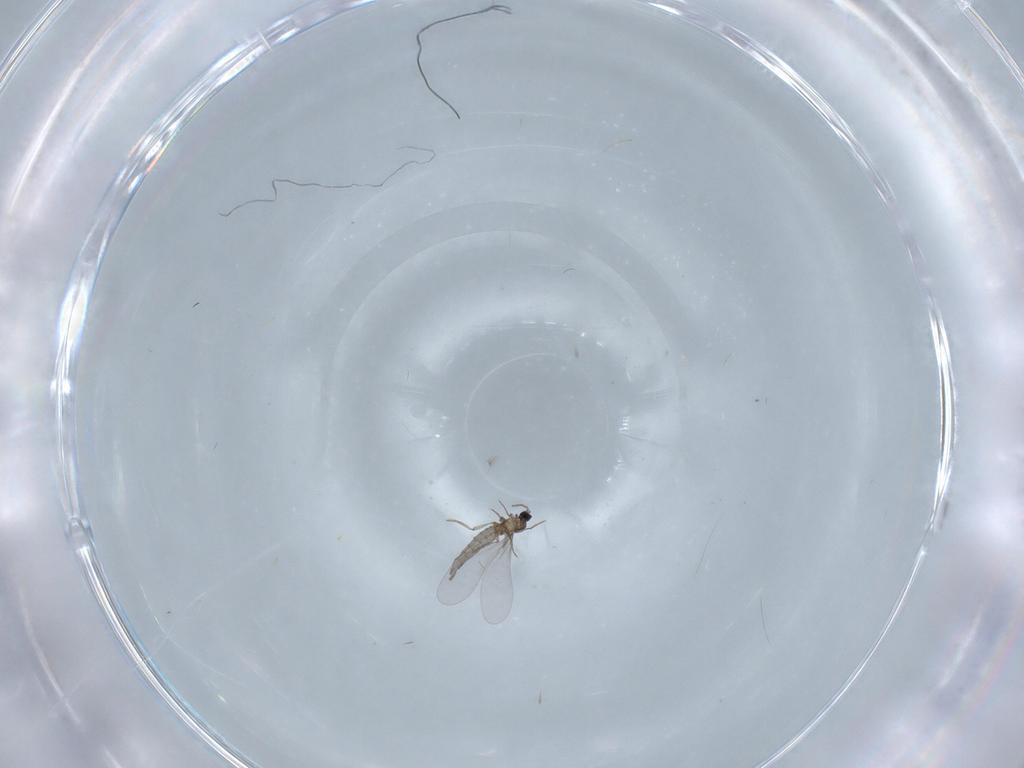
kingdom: Animalia
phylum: Arthropoda
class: Insecta
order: Diptera
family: Cecidomyiidae
